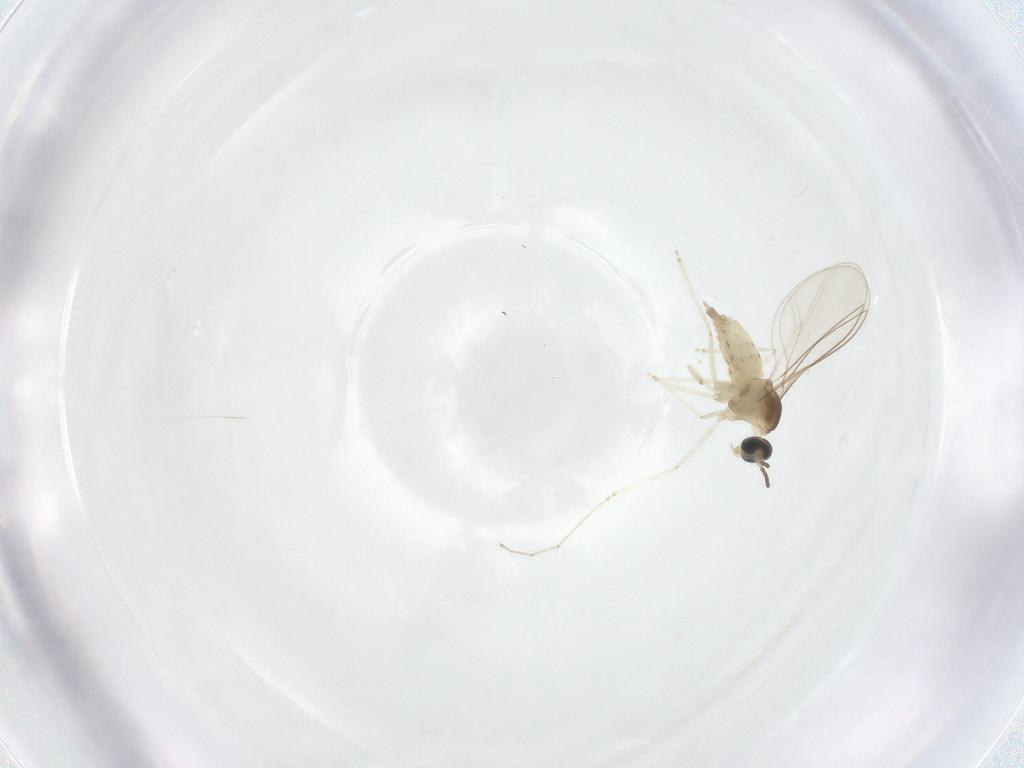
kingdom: Animalia
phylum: Arthropoda
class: Insecta
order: Diptera
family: Cecidomyiidae
